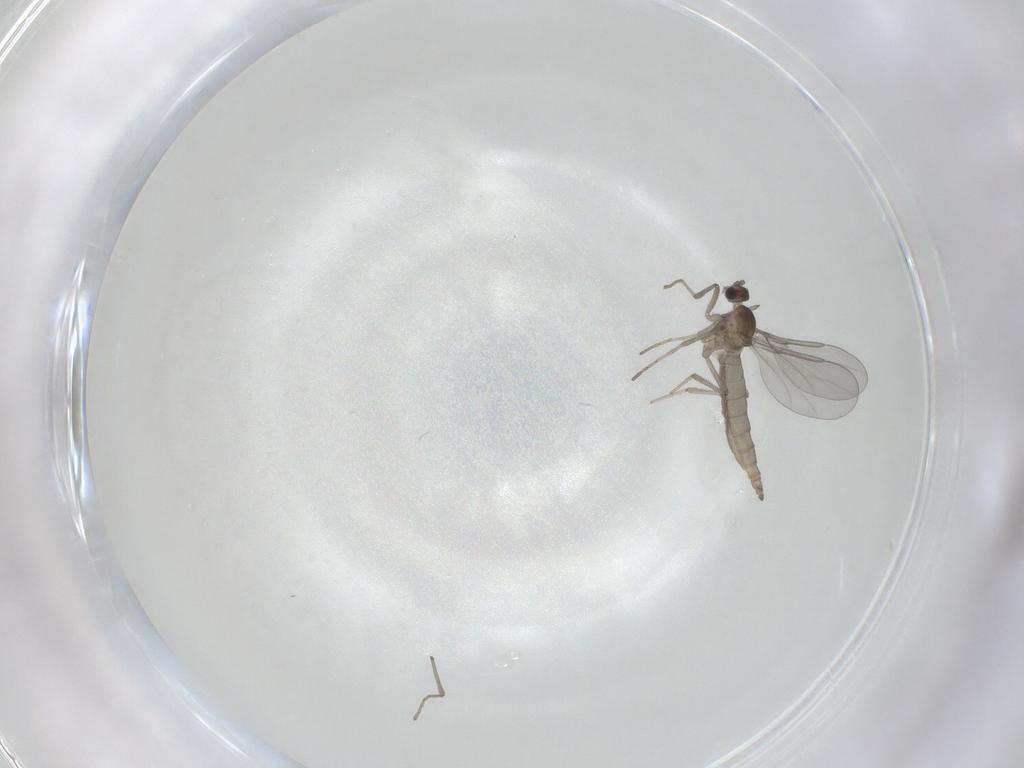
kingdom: Animalia
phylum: Arthropoda
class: Insecta
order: Diptera
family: Cecidomyiidae
